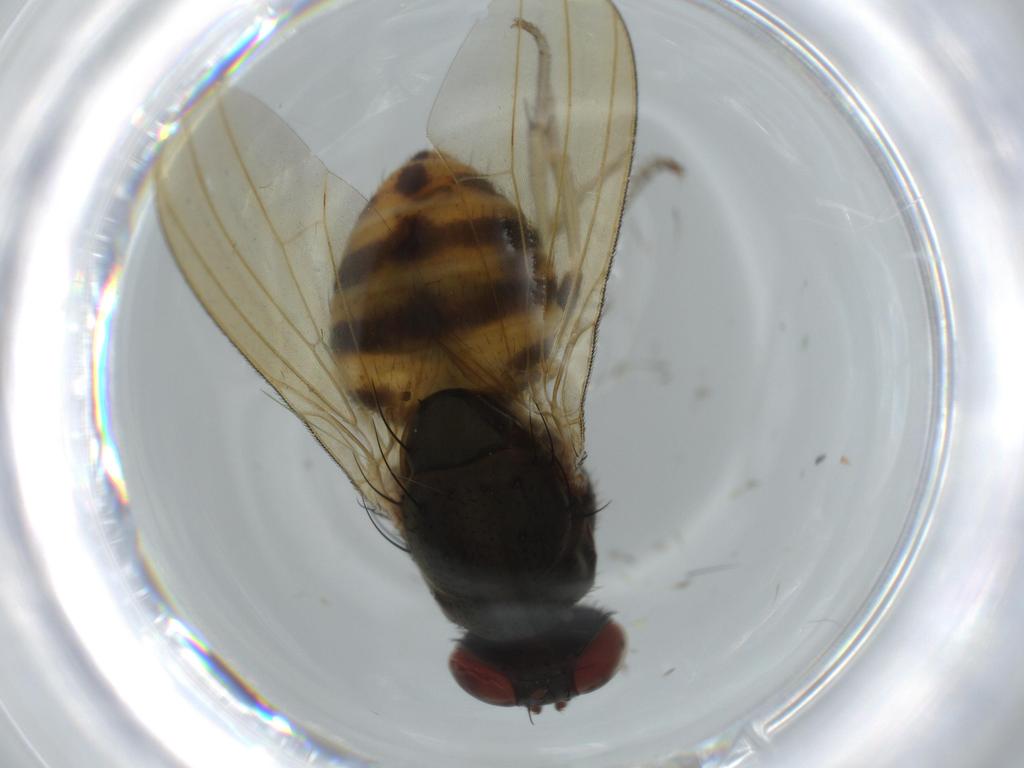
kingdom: Animalia
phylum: Arthropoda
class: Insecta
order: Diptera
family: Phoridae
